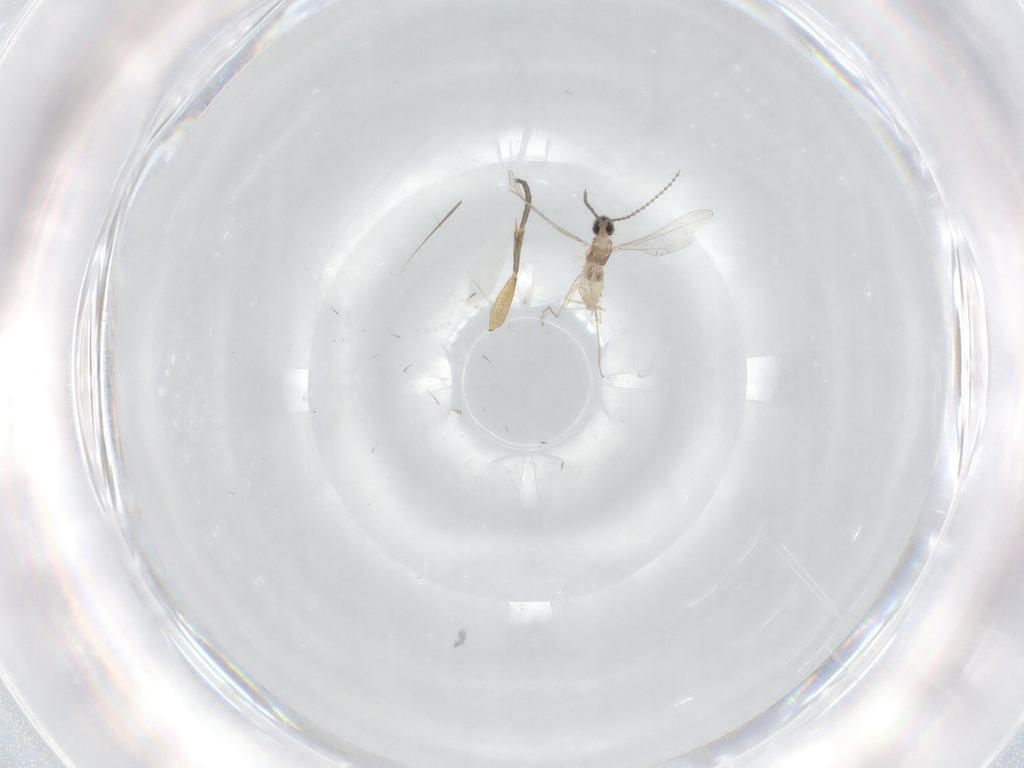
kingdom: Animalia
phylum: Arthropoda
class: Insecta
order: Diptera
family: Cecidomyiidae
